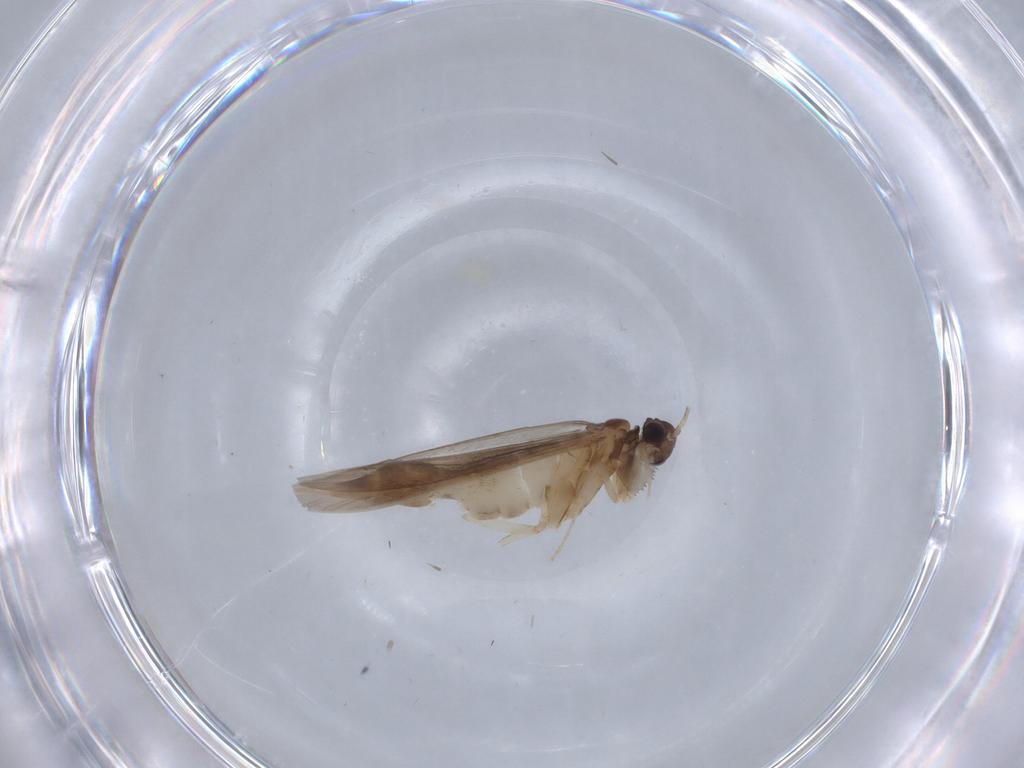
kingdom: Animalia
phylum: Arthropoda
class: Insecta
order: Trichoptera
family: Xiphocentronidae
